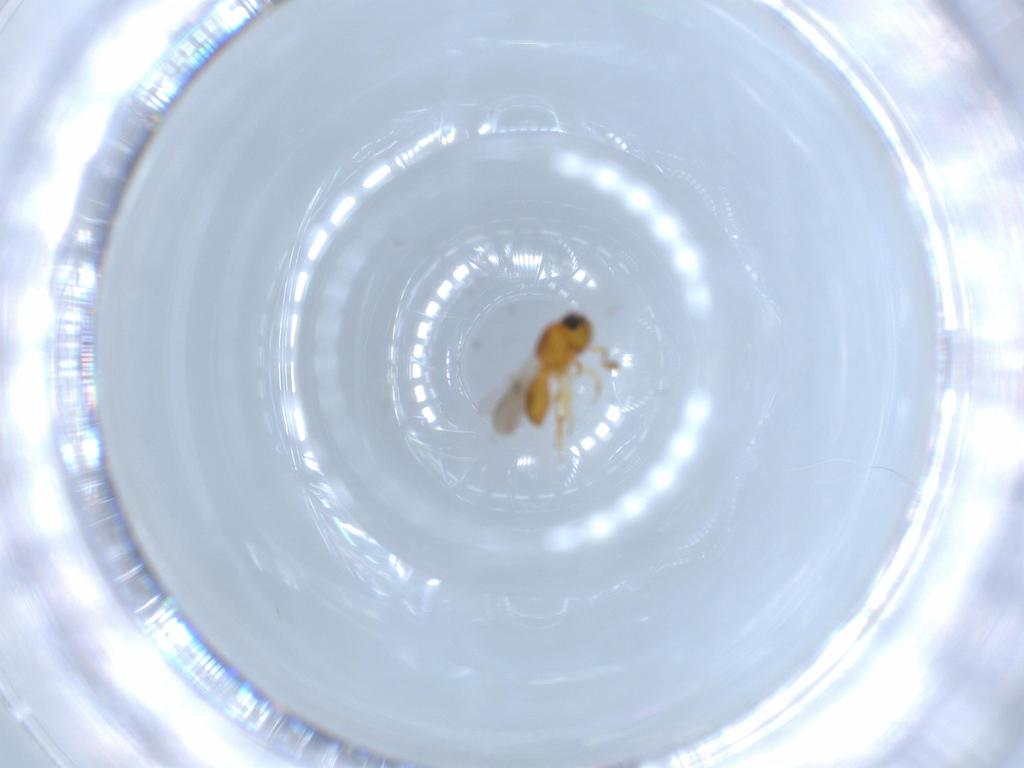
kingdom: Animalia
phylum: Arthropoda
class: Insecta
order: Hymenoptera
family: Scelionidae
